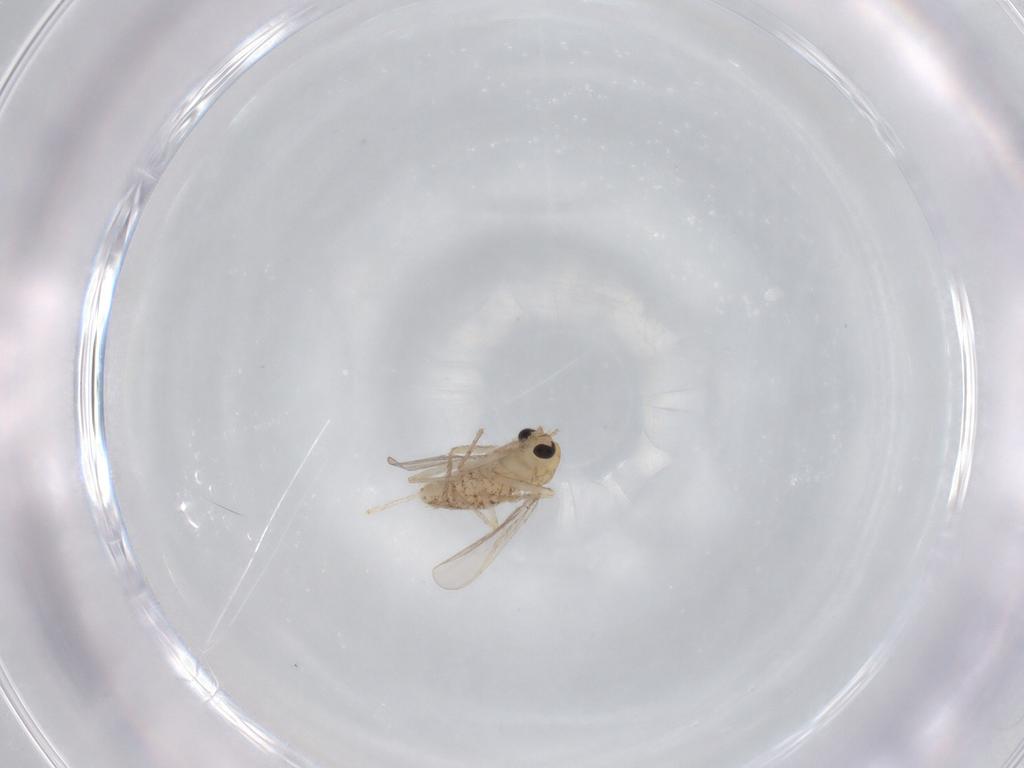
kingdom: Animalia
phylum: Arthropoda
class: Insecta
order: Diptera
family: Chironomidae
